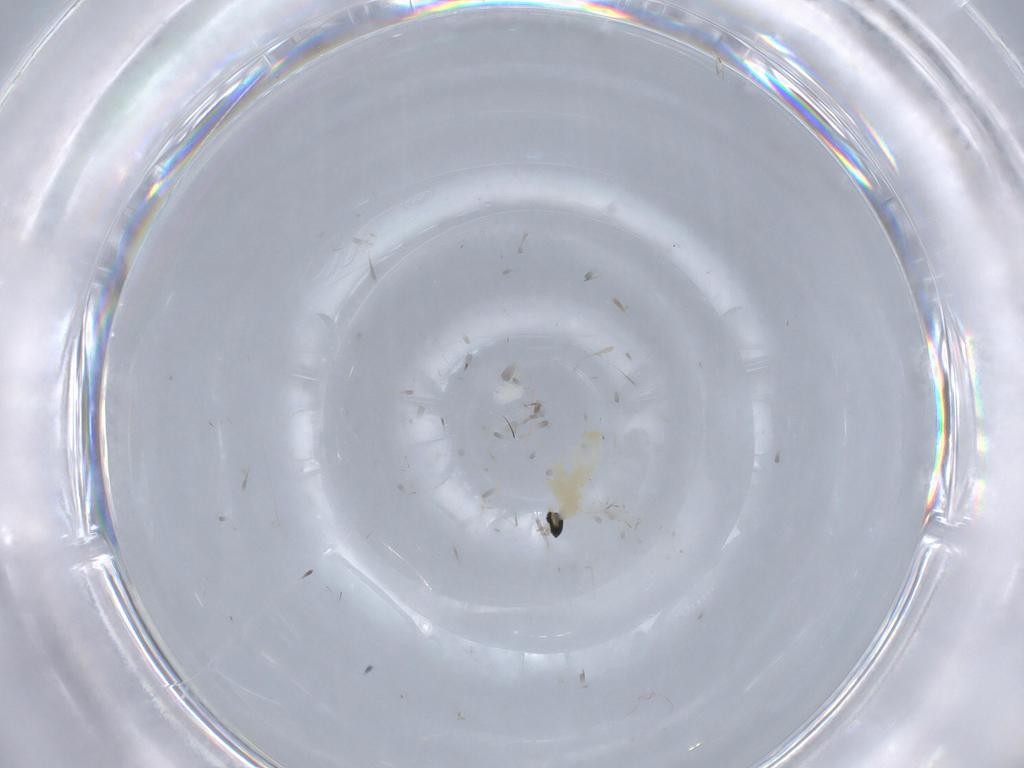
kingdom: Animalia
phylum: Arthropoda
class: Insecta
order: Diptera
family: Cecidomyiidae
